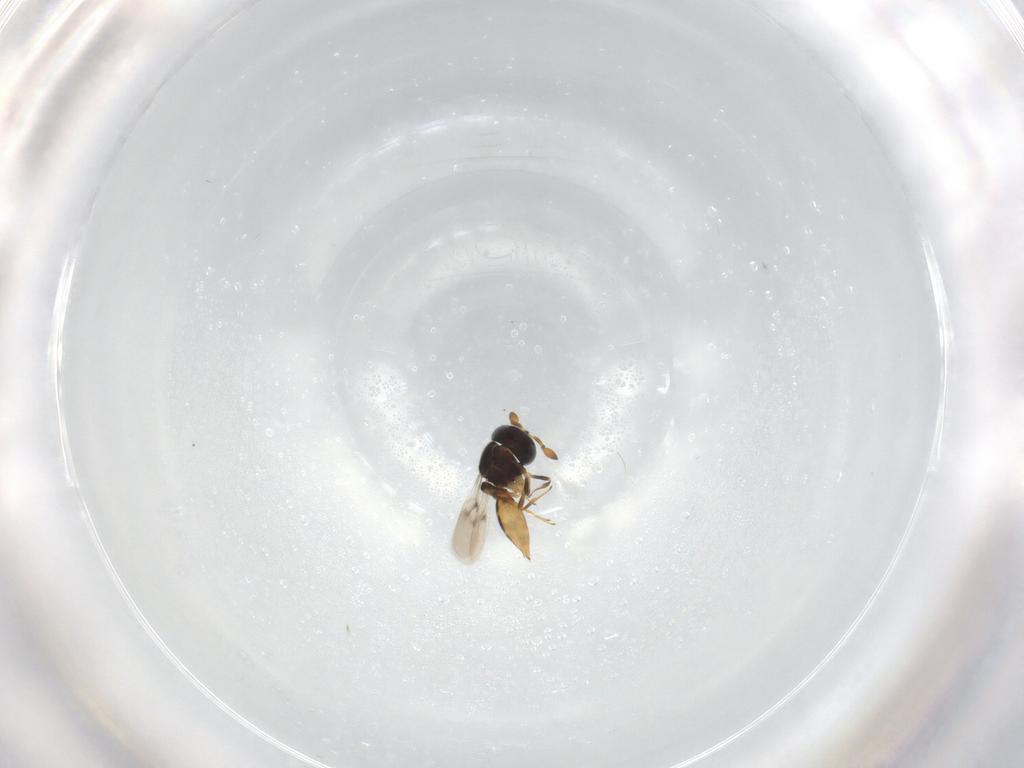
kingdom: Animalia
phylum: Arthropoda
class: Insecta
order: Hymenoptera
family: Scelionidae
